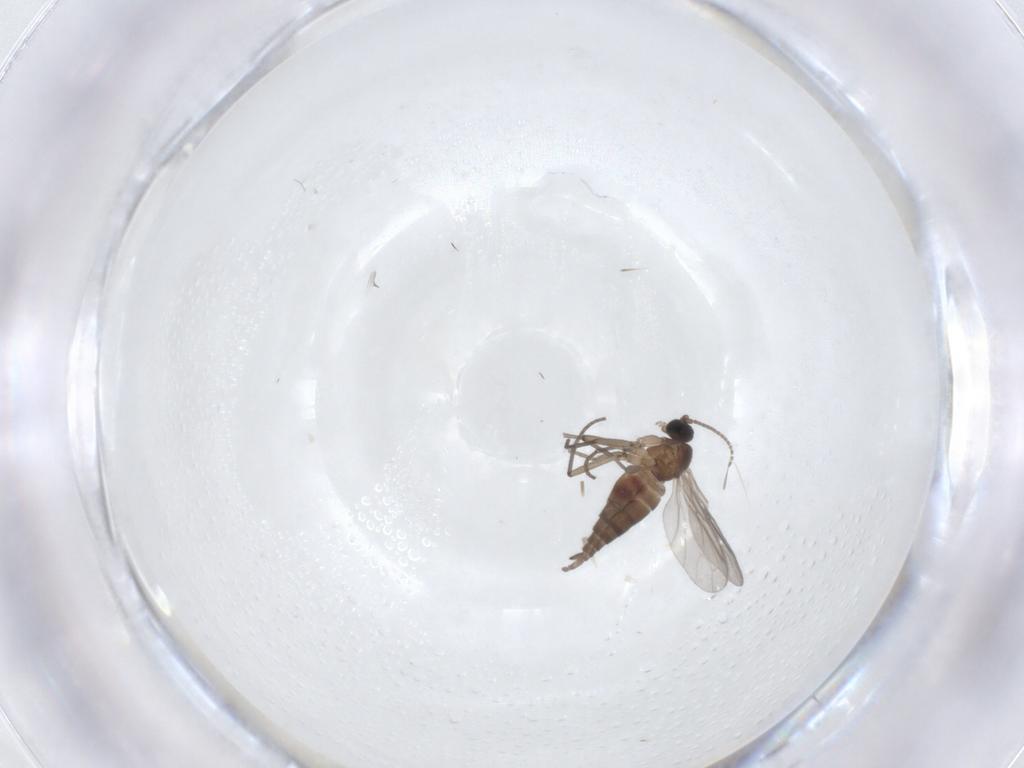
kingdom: Animalia
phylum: Arthropoda
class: Insecta
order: Diptera
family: Sciaridae
